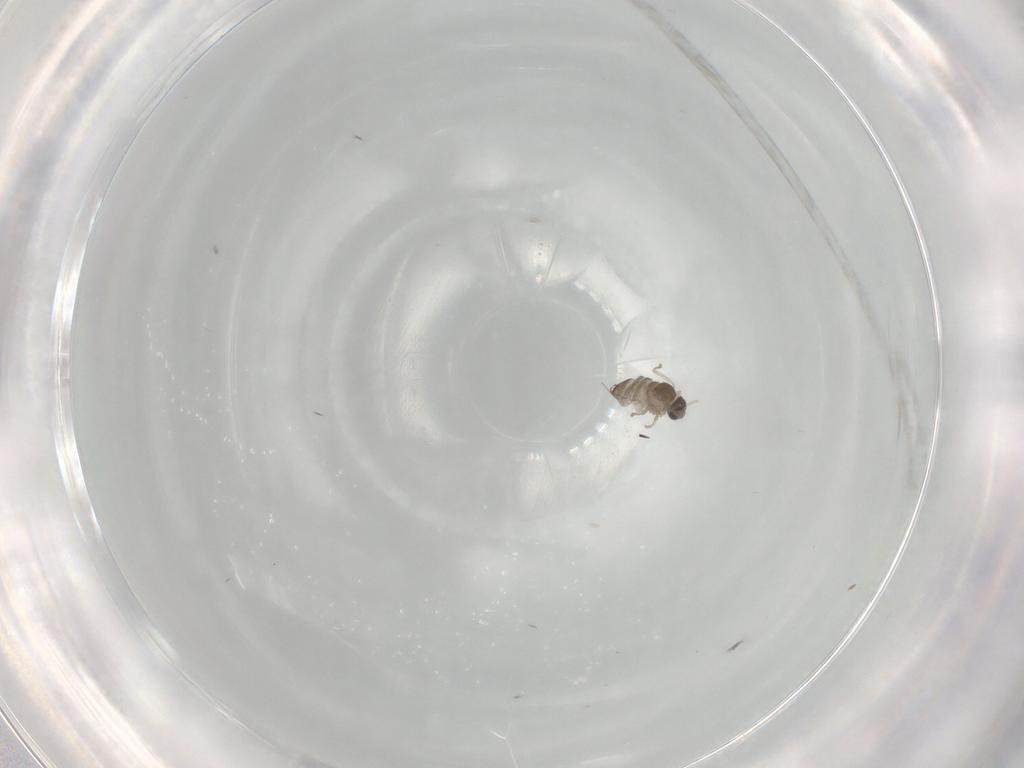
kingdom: Animalia
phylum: Arthropoda
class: Insecta
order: Diptera
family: Cecidomyiidae
